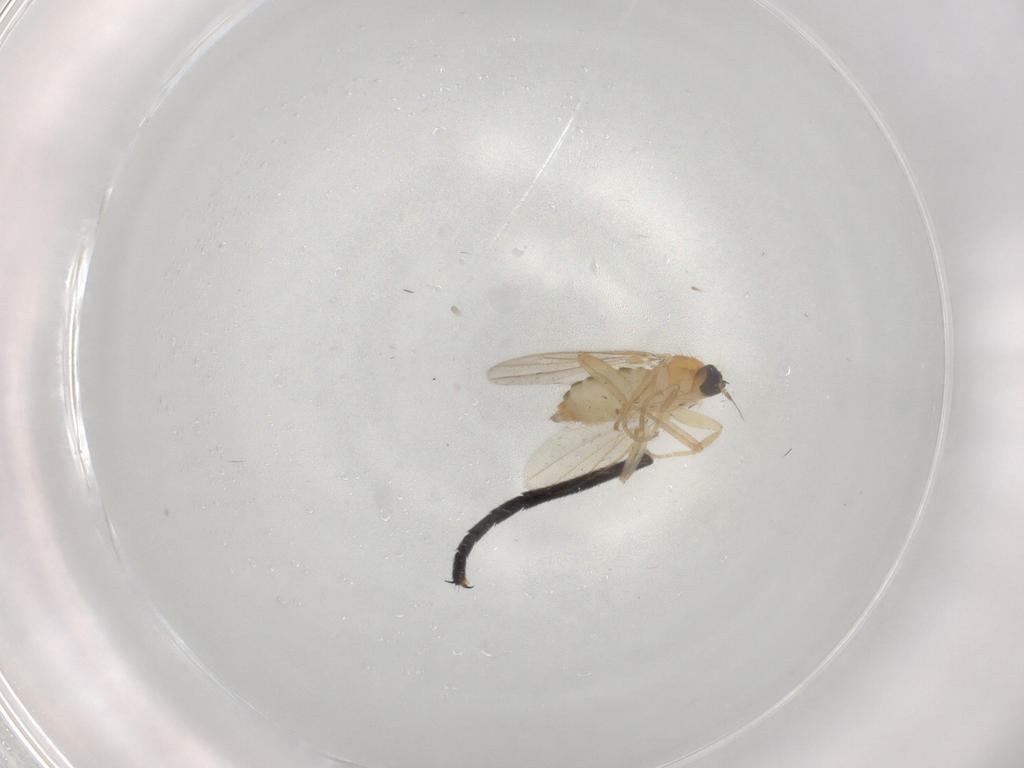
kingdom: Animalia
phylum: Arthropoda
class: Insecta
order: Diptera
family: Hybotidae
